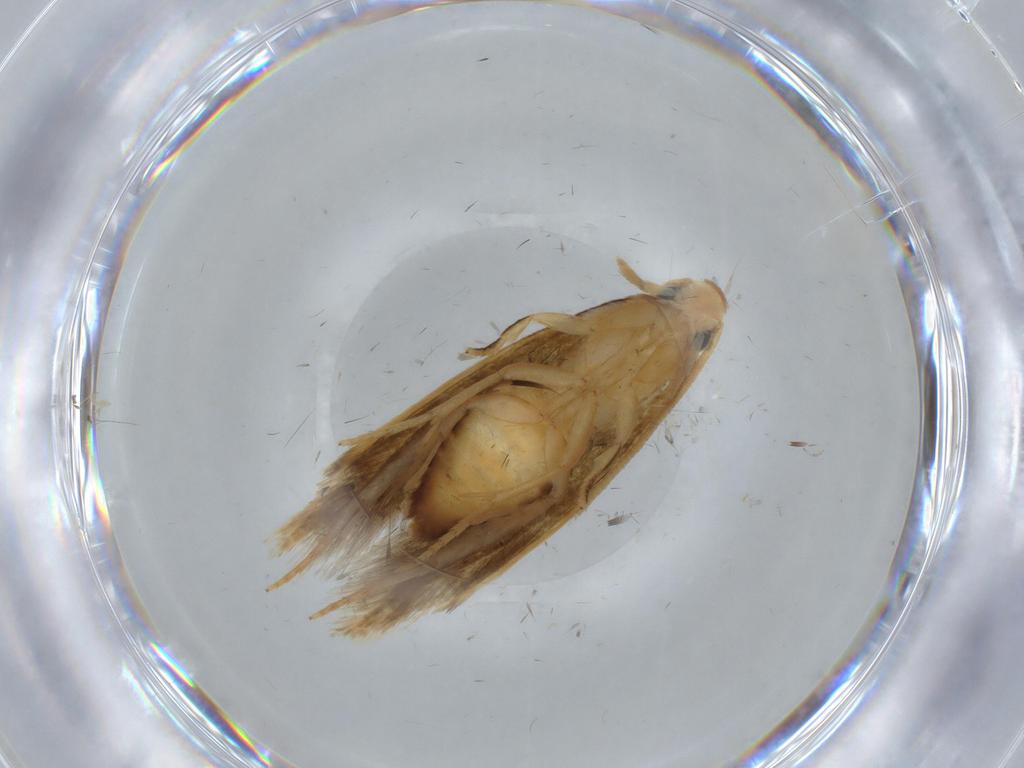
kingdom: Animalia
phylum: Arthropoda
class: Insecta
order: Lepidoptera
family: Tineidae
